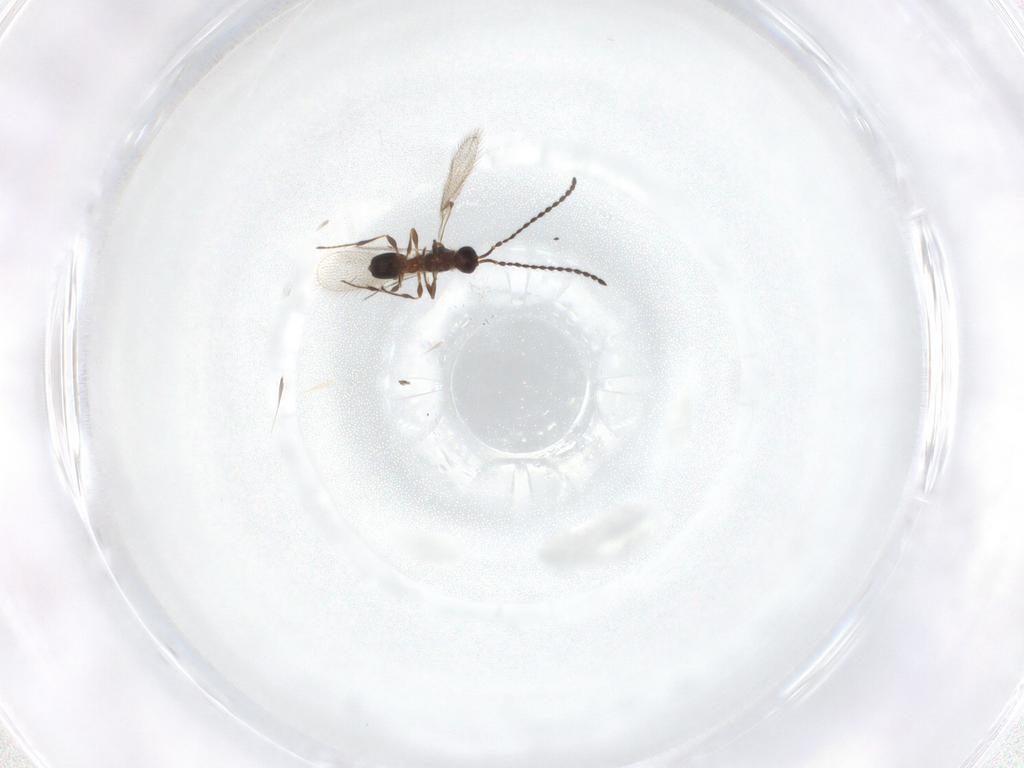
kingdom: Animalia
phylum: Arthropoda
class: Insecta
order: Hymenoptera
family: Diapriidae
